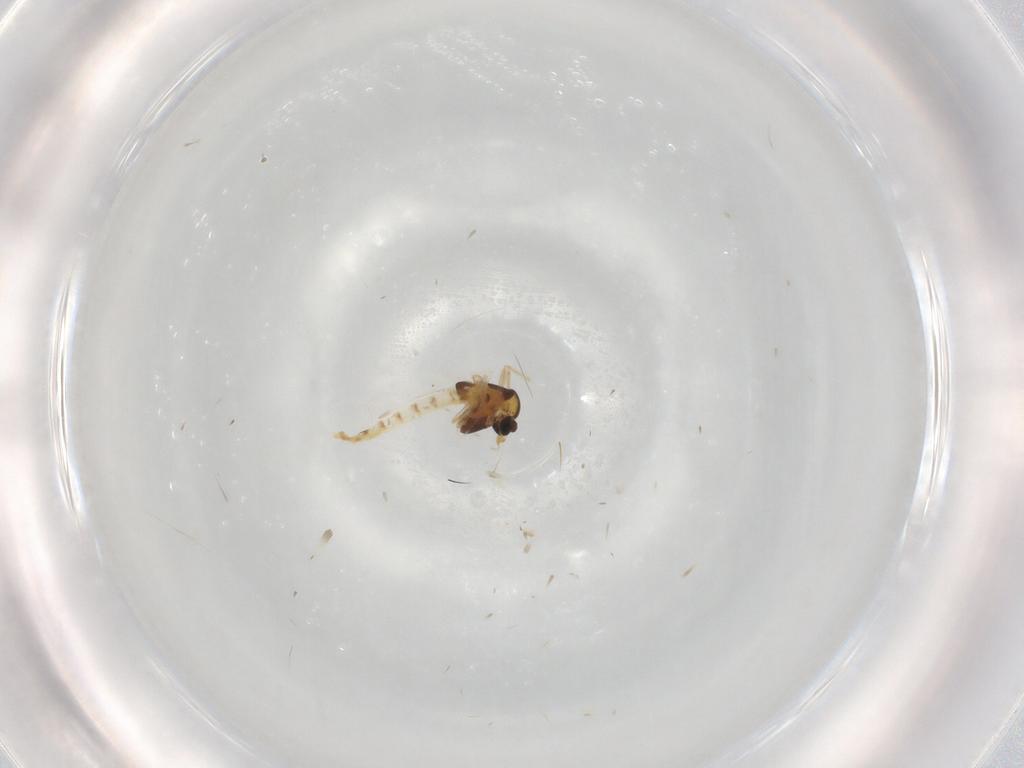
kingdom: Animalia
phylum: Arthropoda
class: Insecta
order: Diptera
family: Chironomidae
